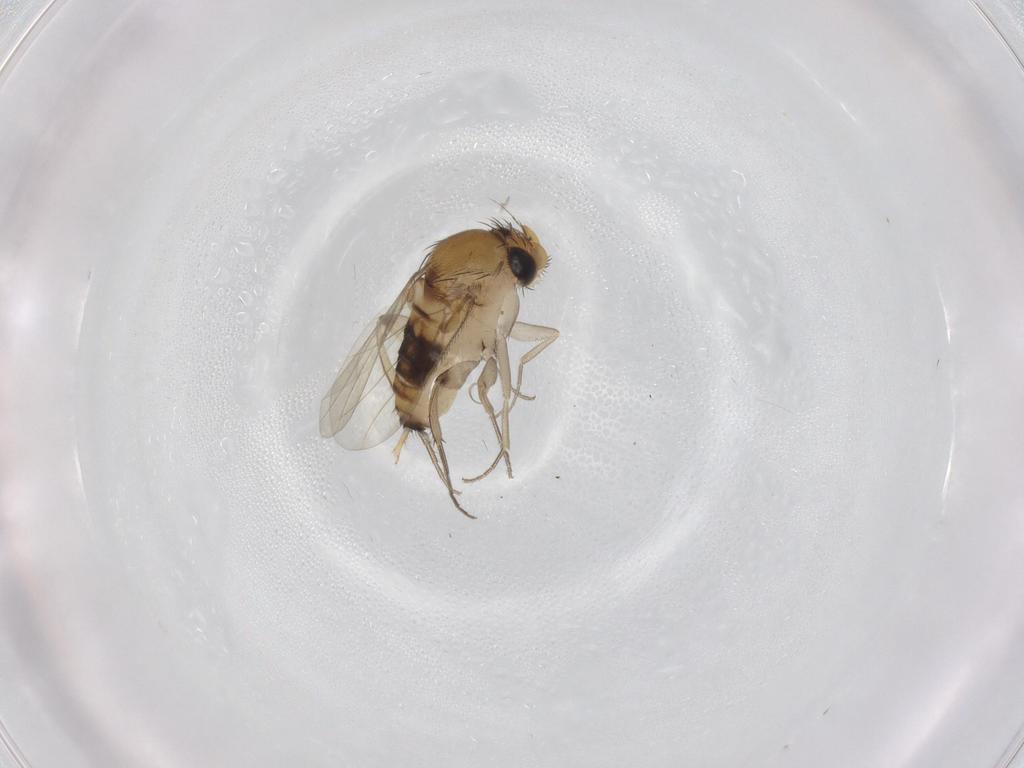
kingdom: Animalia
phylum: Arthropoda
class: Insecta
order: Diptera
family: Phoridae
